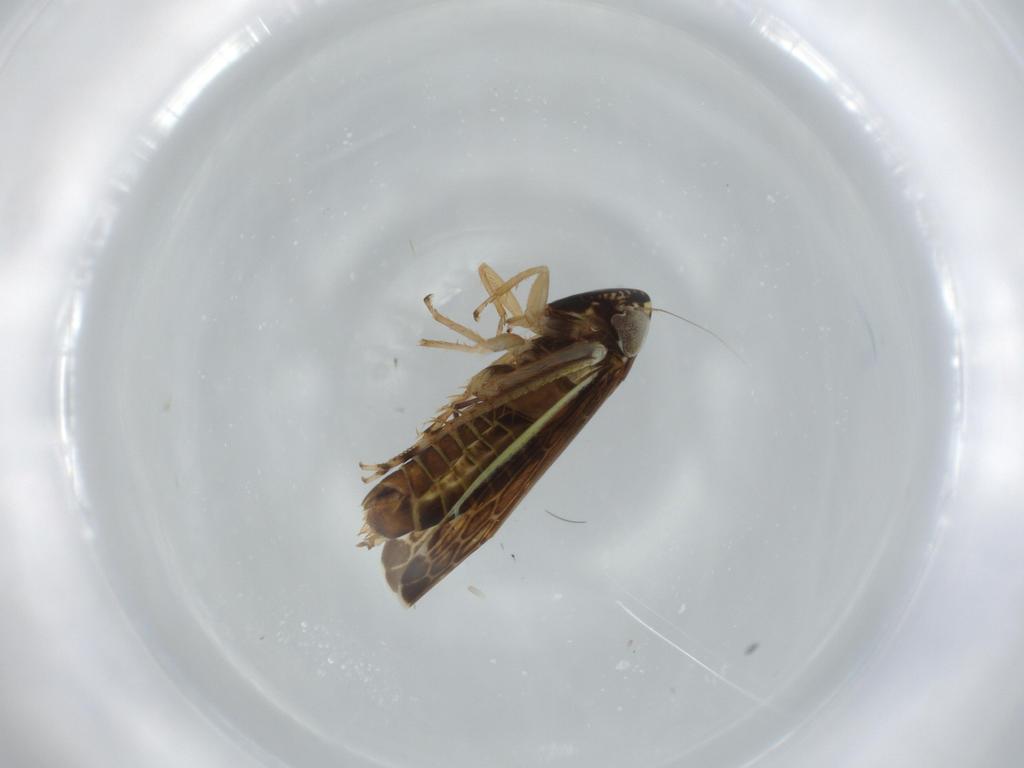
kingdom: Animalia
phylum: Arthropoda
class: Insecta
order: Hemiptera
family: Cicadellidae
